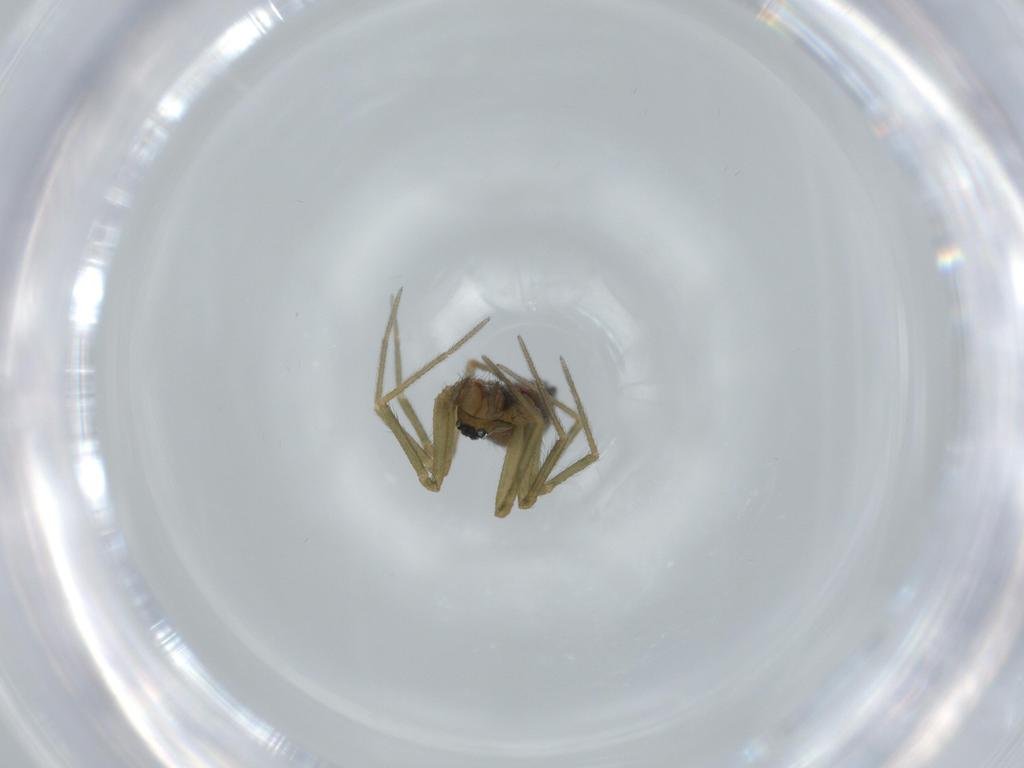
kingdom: Animalia
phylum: Arthropoda
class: Arachnida
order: Araneae
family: Linyphiidae
